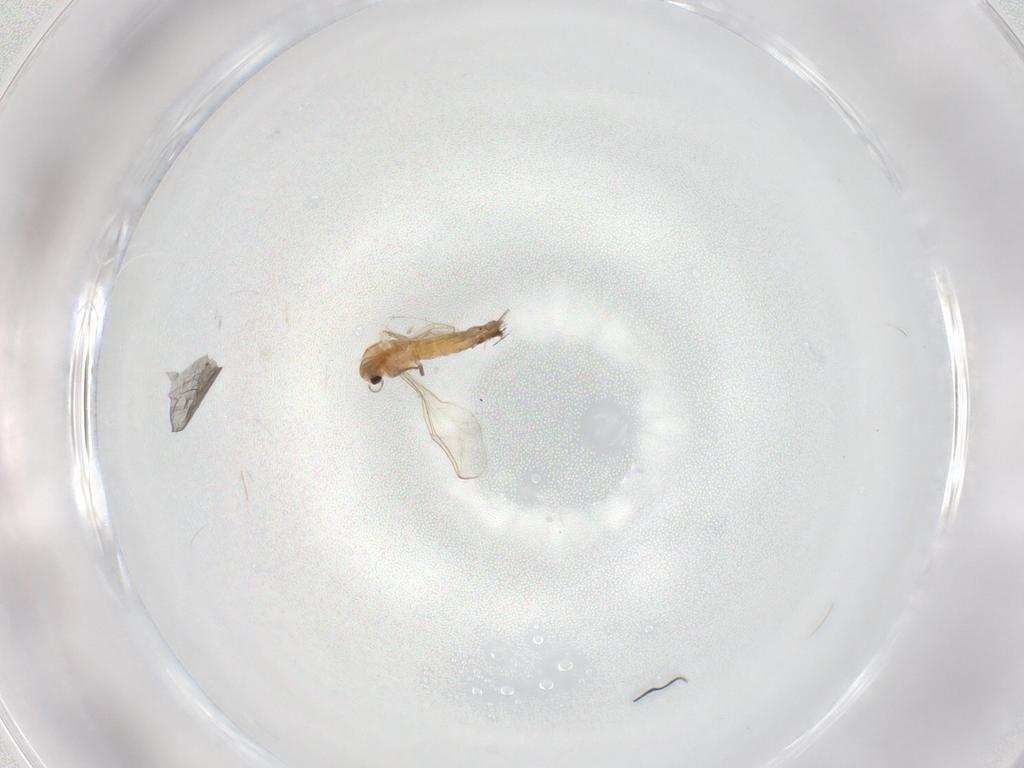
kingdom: Animalia
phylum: Arthropoda
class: Insecta
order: Diptera
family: Chironomidae
